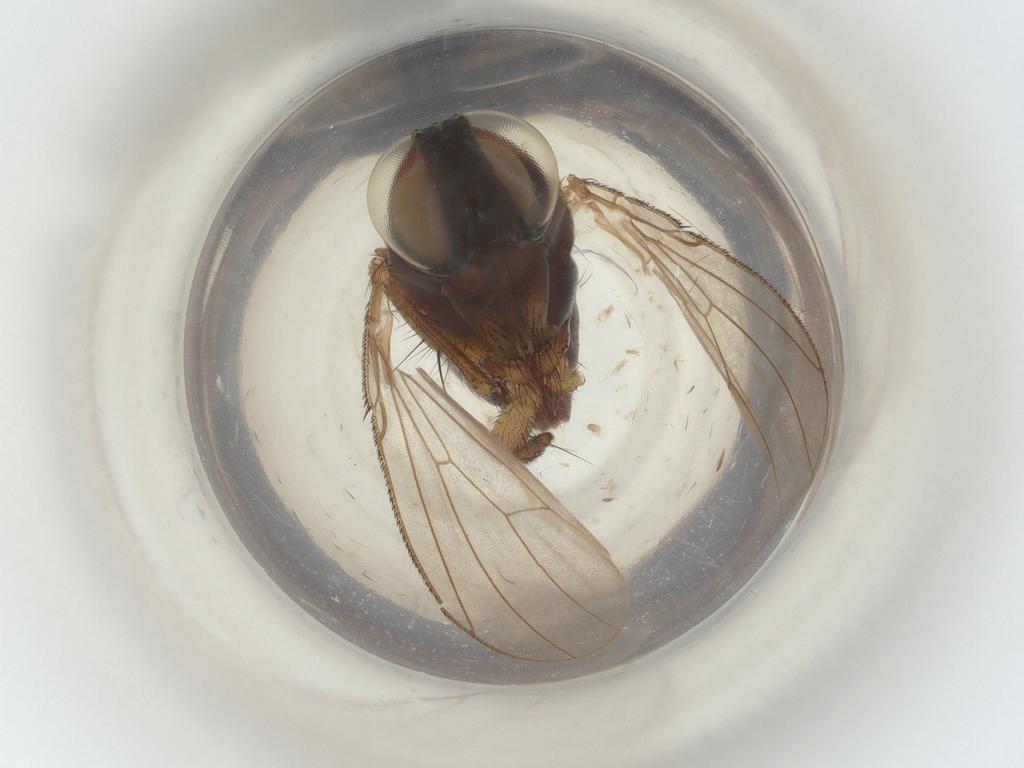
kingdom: Animalia
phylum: Arthropoda
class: Insecta
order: Diptera
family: Muscidae
